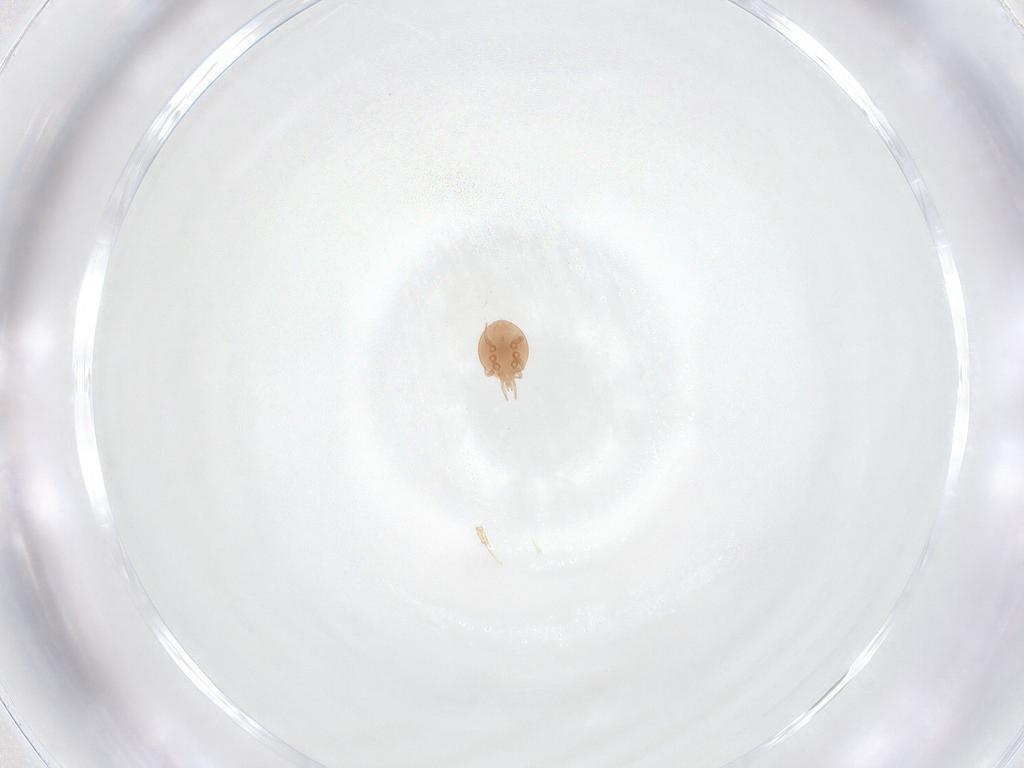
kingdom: Animalia
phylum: Arthropoda
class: Arachnida
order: Mesostigmata
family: Trematuridae
